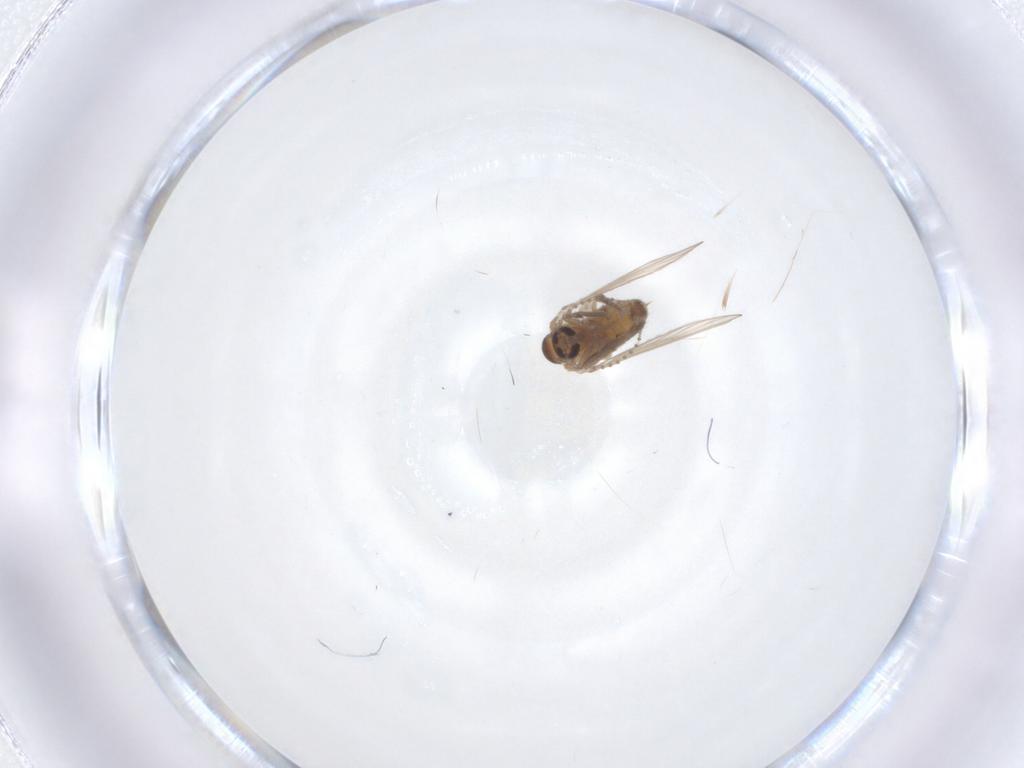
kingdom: Animalia
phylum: Arthropoda
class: Insecta
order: Diptera
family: Psychodidae
